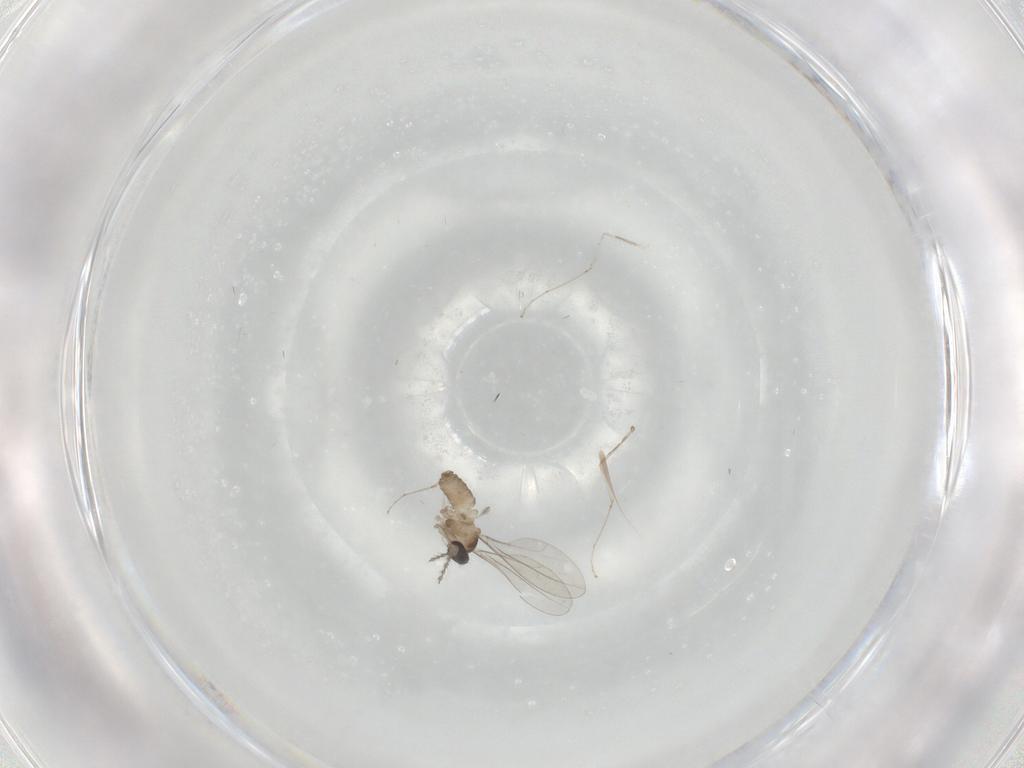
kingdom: Animalia
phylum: Arthropoda
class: Insecta
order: Diptera
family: Cecidomyiidae
